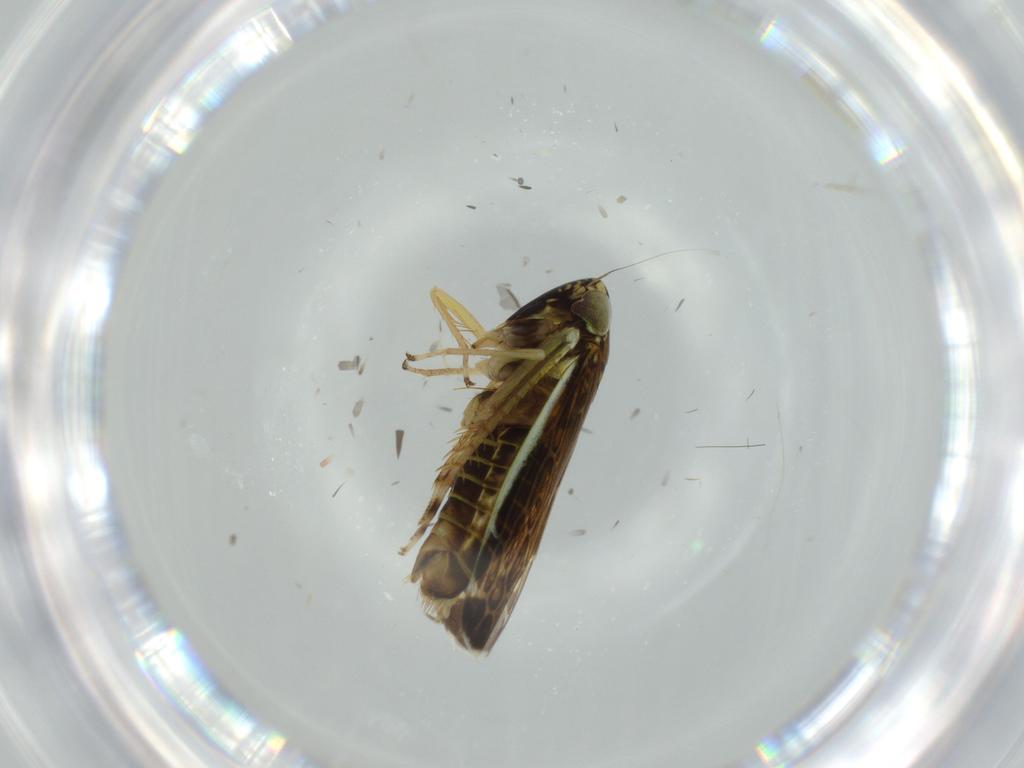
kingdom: Animalia
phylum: Arthropoda
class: Insecta
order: Hemiptera
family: Cicadellidae
